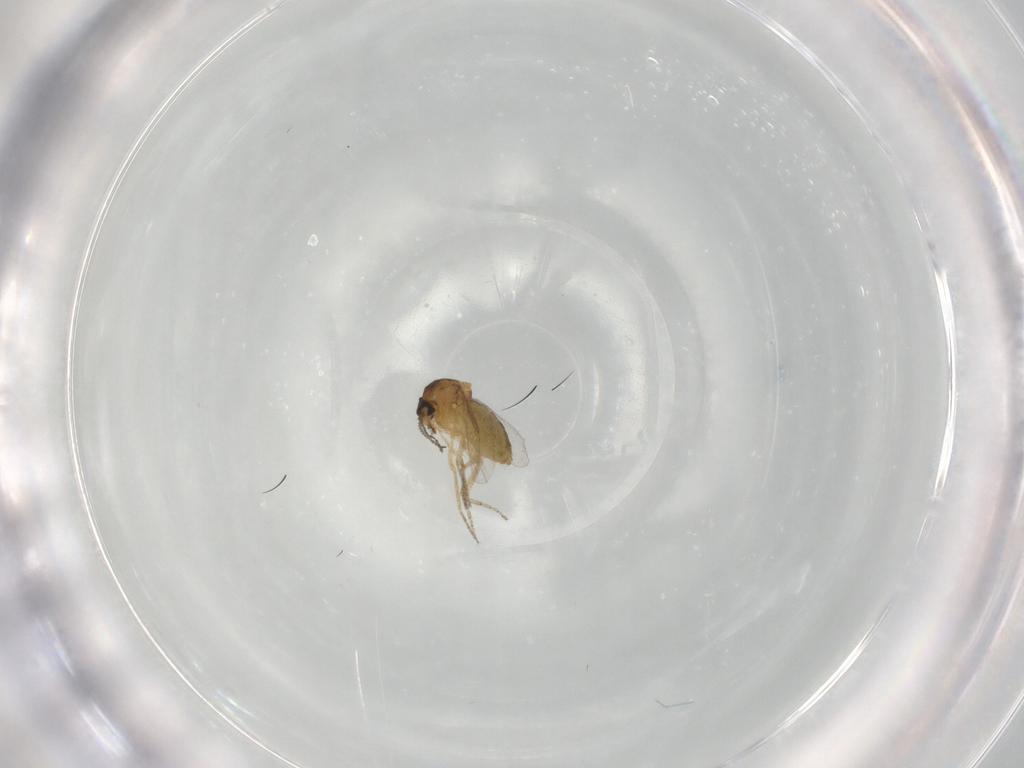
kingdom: Animalia
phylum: Arthropoda
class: Insecta
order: Diptera
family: Ceratopogonidae
